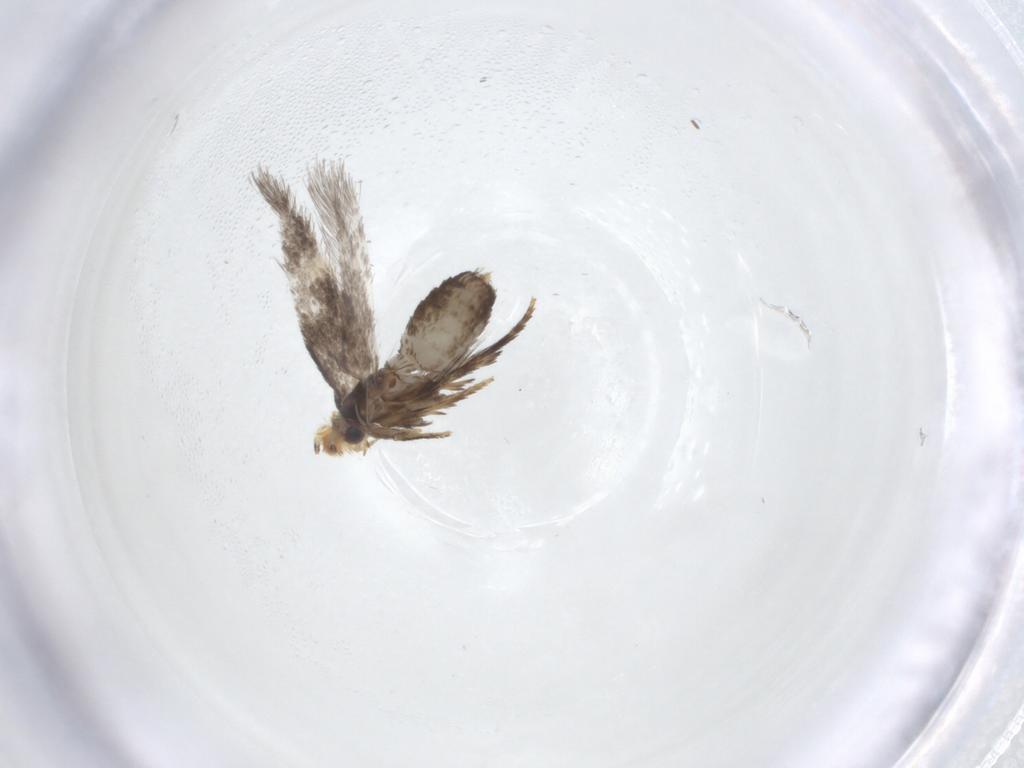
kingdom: Animalia
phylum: Arthropoda
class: Insecta
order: Lepidoptera
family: Nepticulidae
